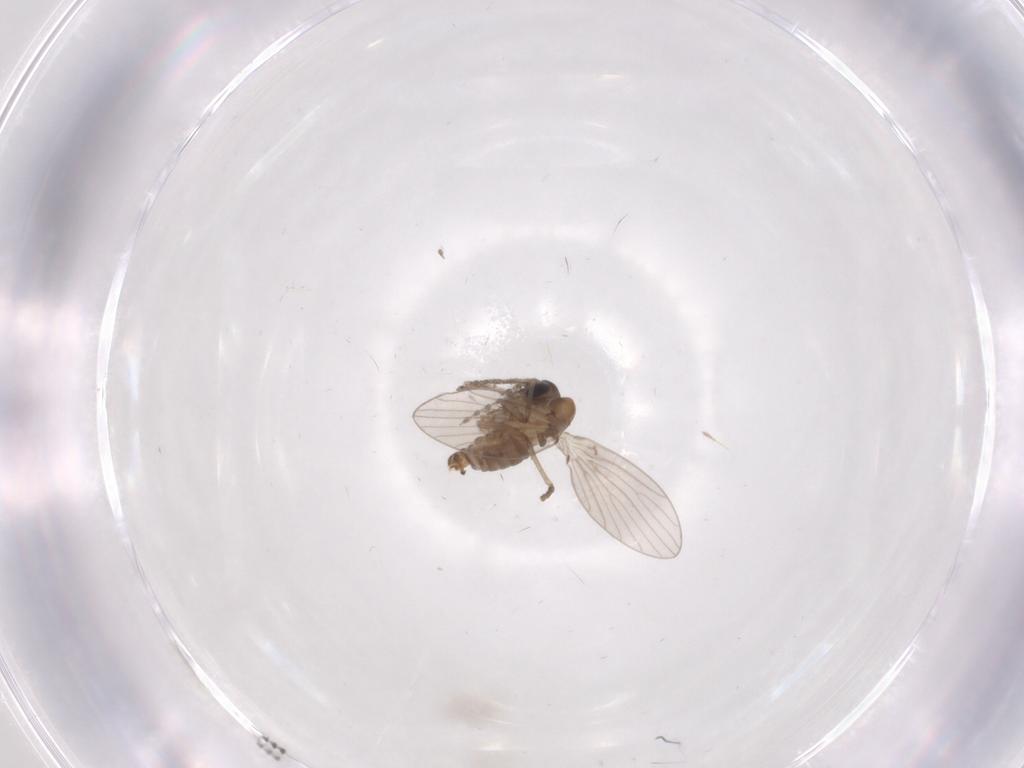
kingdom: Animalia
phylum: Arthropoda
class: Insecta
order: Diptera
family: Psychodidae
